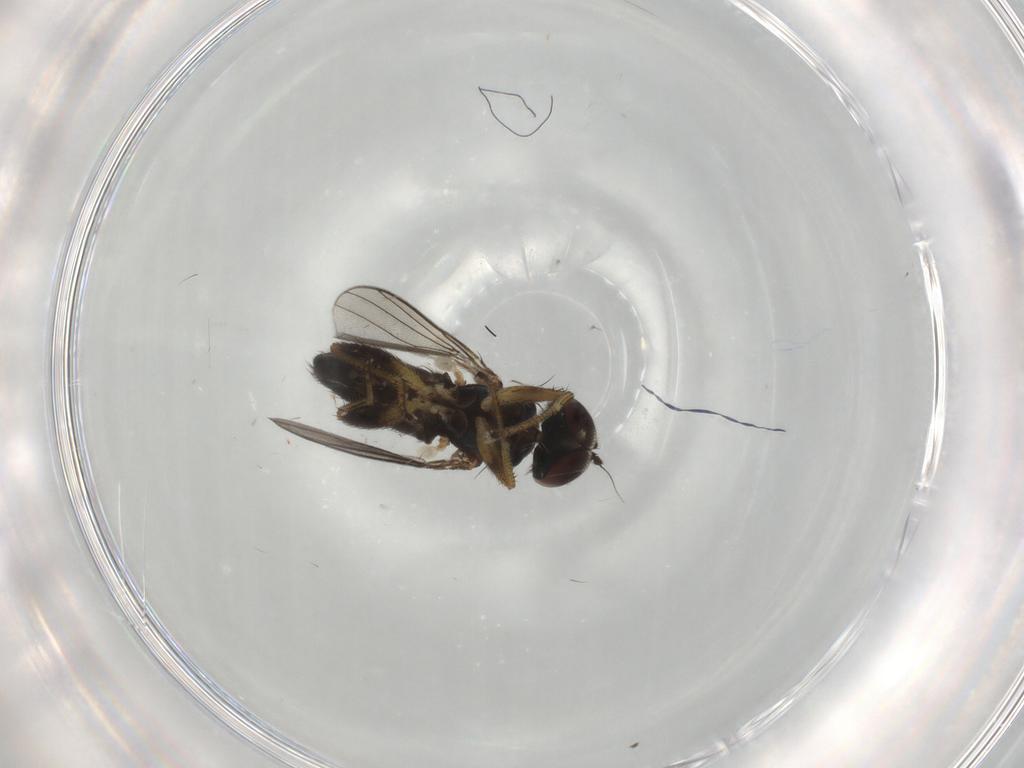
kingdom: Animalia
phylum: Arthropoda
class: Insecta
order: Diptera
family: Dolichopodidae
